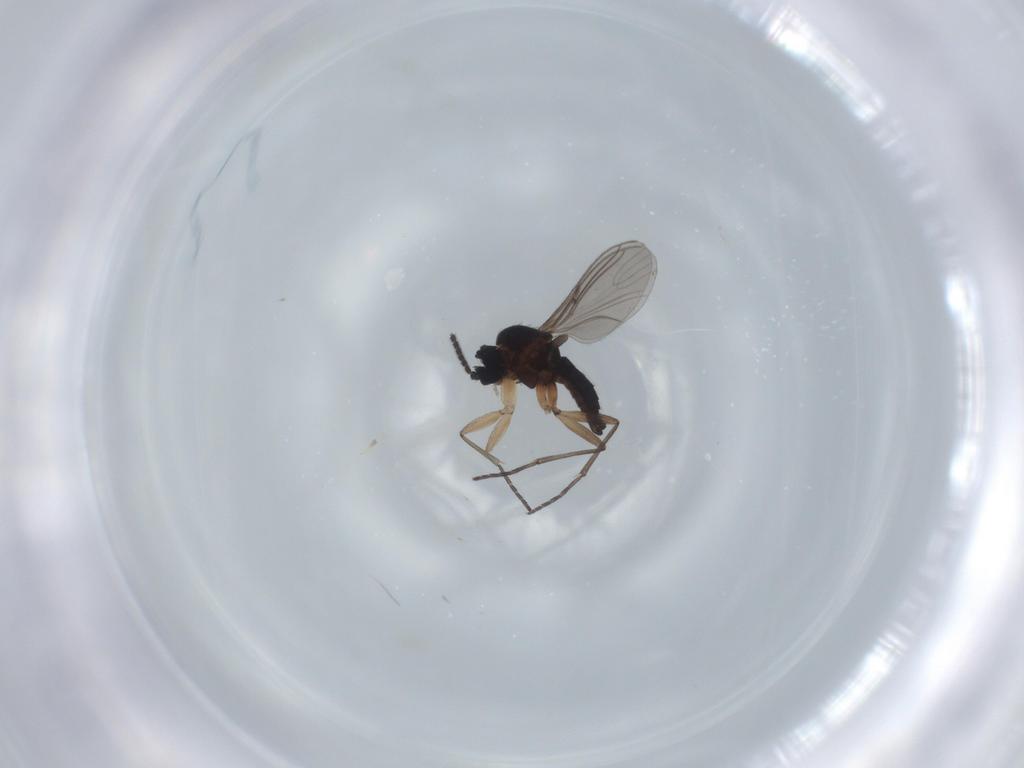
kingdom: Animalia
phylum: Arthropoda
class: Insecta
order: Diptera
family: Sciaridae
